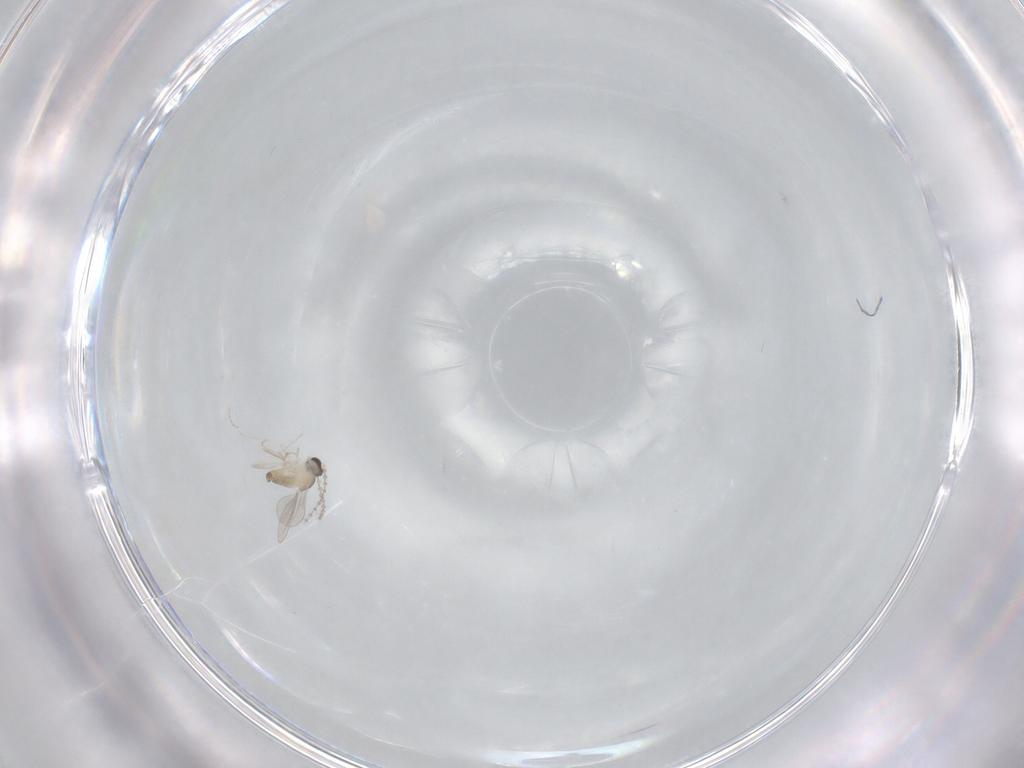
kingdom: Animalia
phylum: Arthropoda
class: Insecta
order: Diptera
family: Cecidomyiidae
